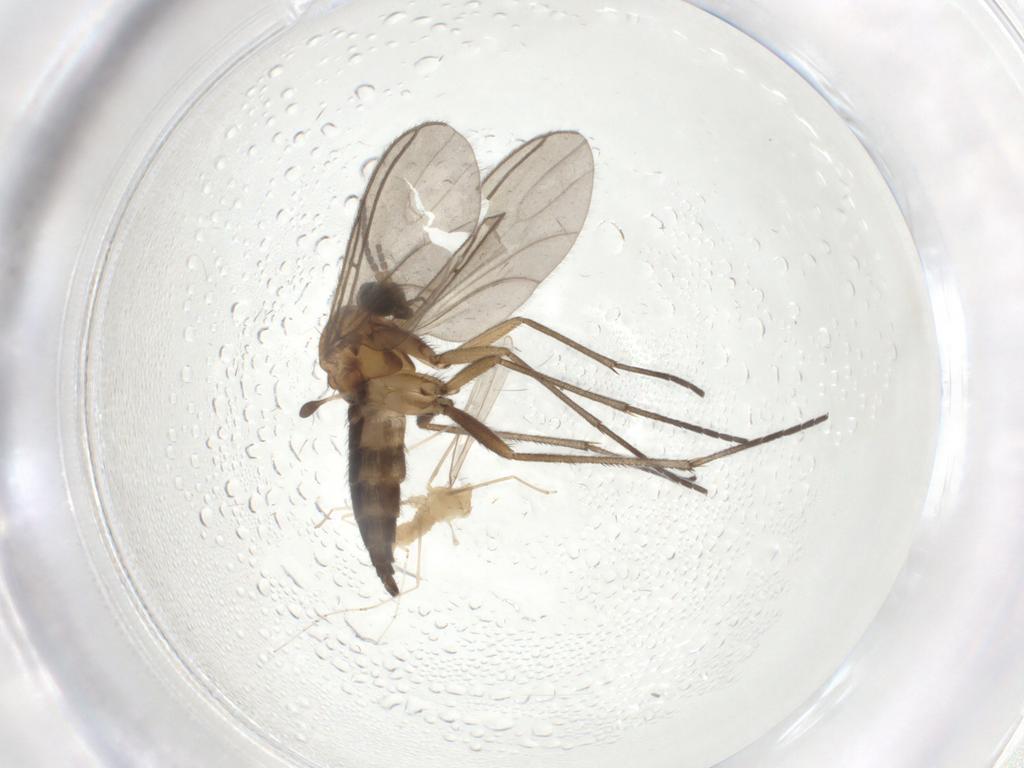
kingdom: Animalia
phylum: Arthropoda
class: Insecta
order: Diptera
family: Sciaridae
